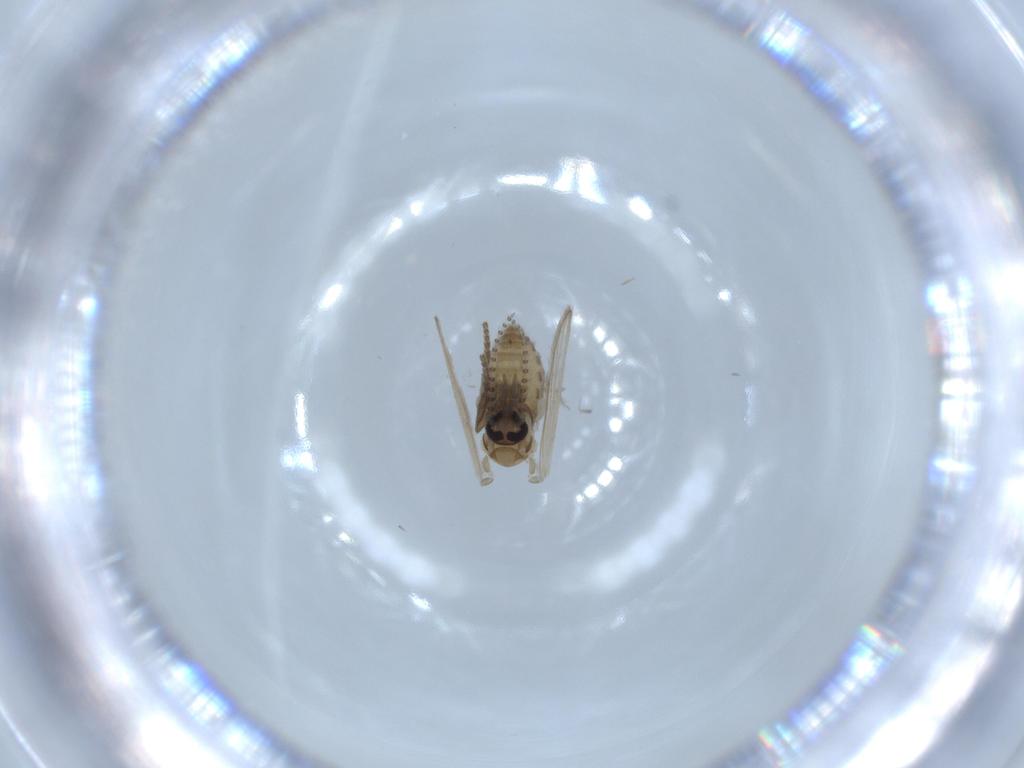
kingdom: Animalia
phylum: Arthropoda
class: Insecta
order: Diptera
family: Psychodidae
